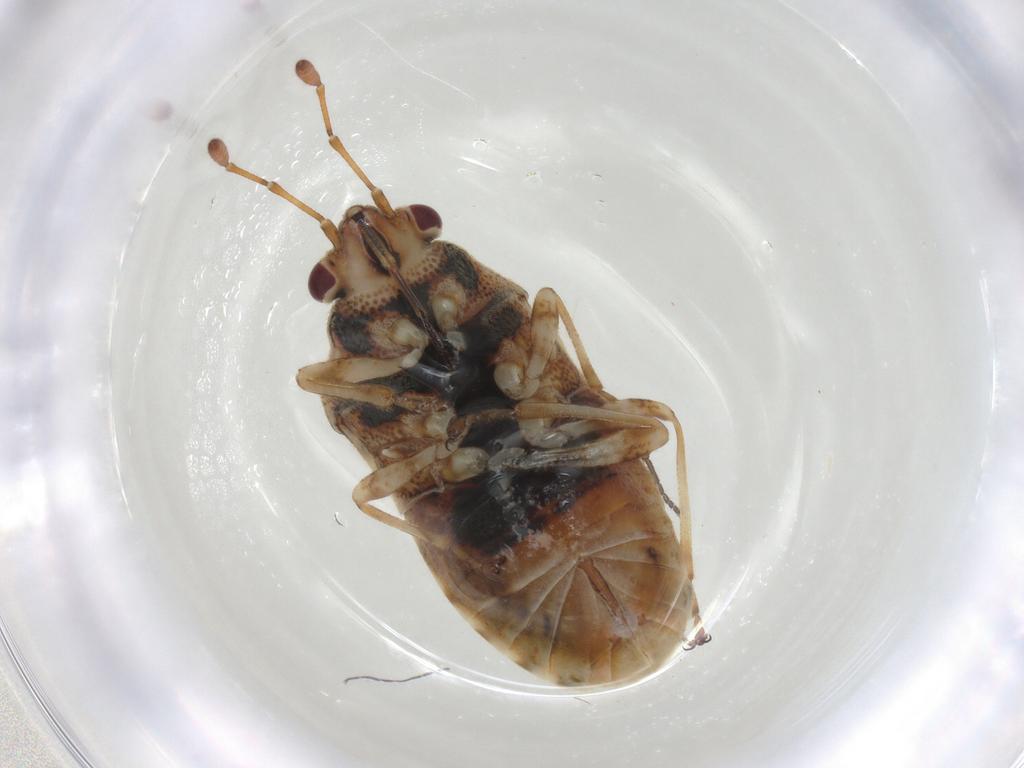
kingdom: Animalia
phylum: Arthropoda
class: Insecta
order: Hemiptera
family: Lygaeidae
